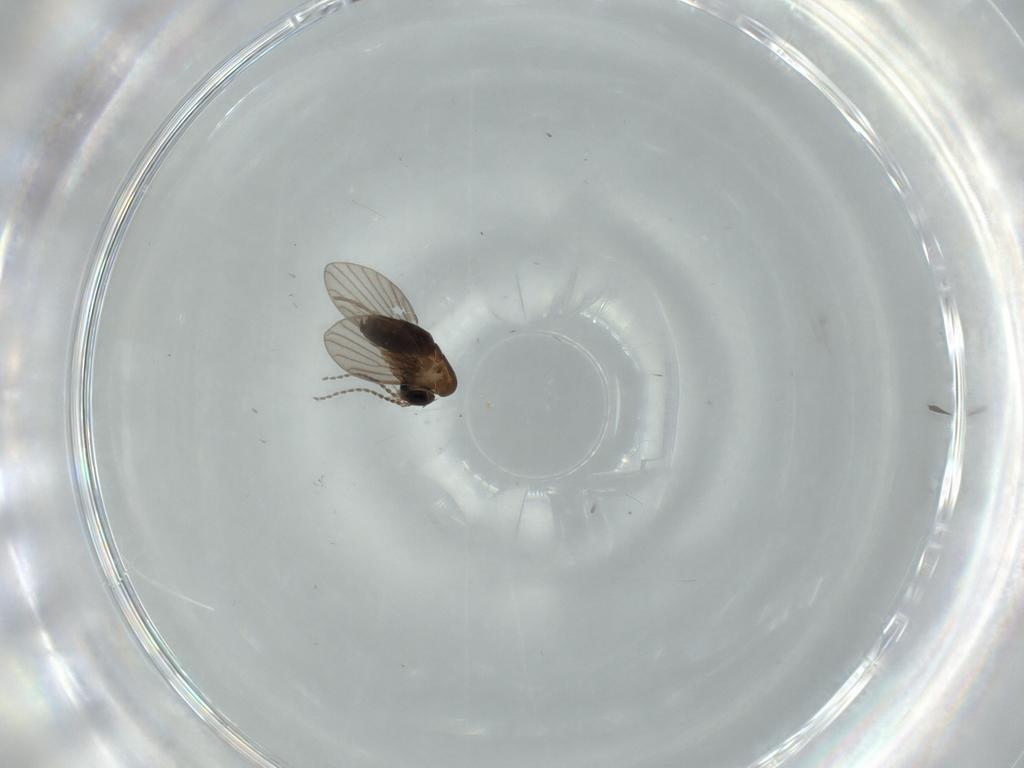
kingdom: Animalia
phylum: Arthropoda
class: Insecta
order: Diptera
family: Psychodidae
